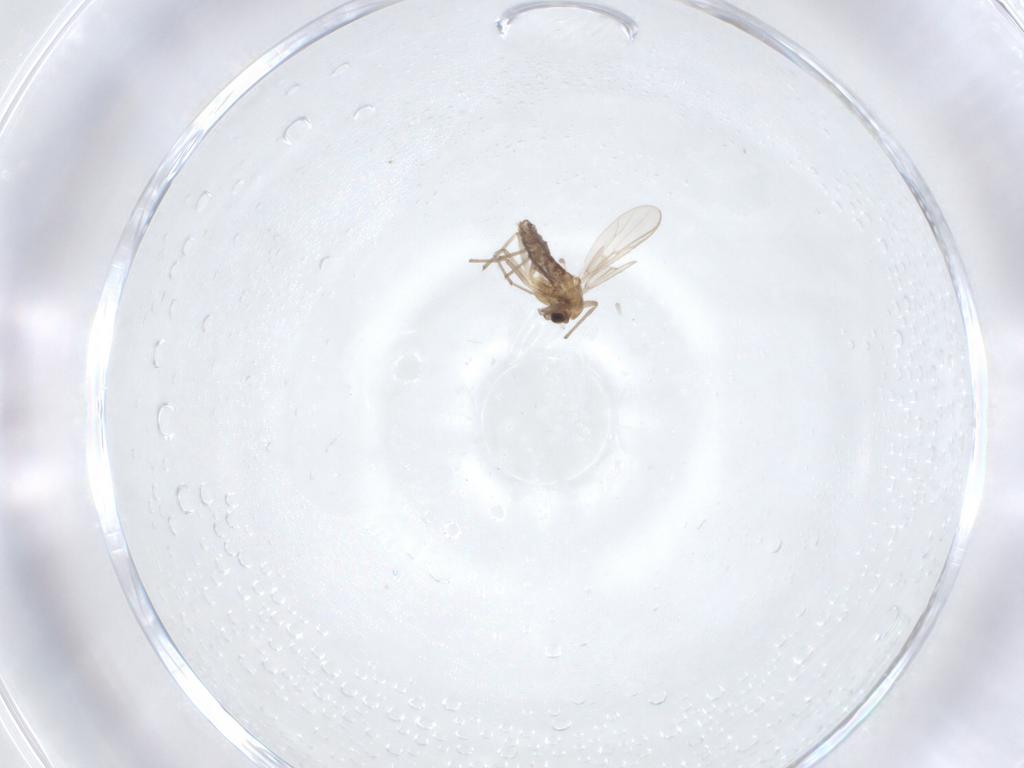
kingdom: Animalia
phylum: Arthropoda
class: Insecta
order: Diptera
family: Chironomidae
